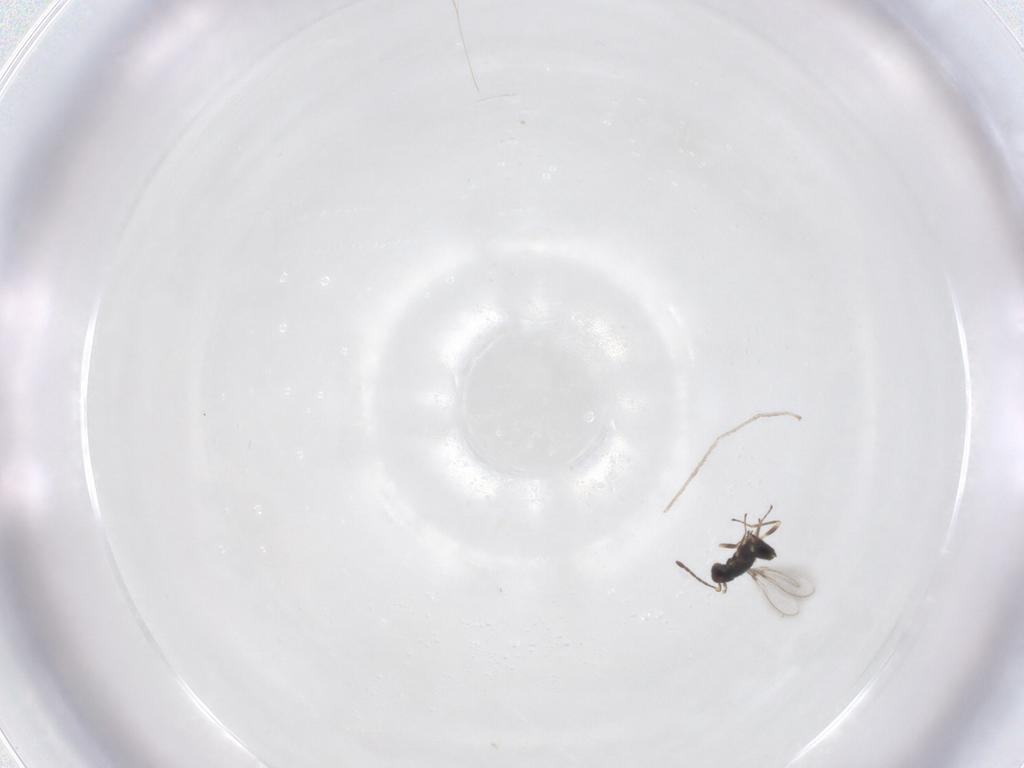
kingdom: Animalia
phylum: Arthropoda
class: Insecta
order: Hymenoptera
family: Mymaridae
